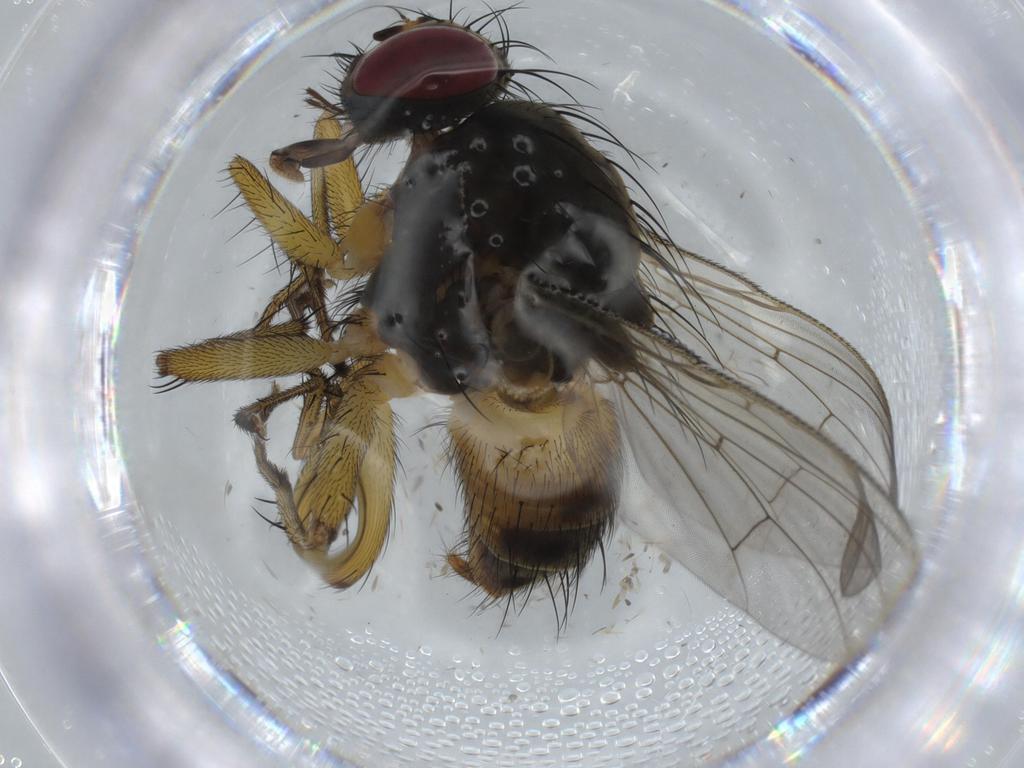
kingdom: Animalia
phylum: Arthropoda
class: Insecta
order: Diptera
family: Muscidae
